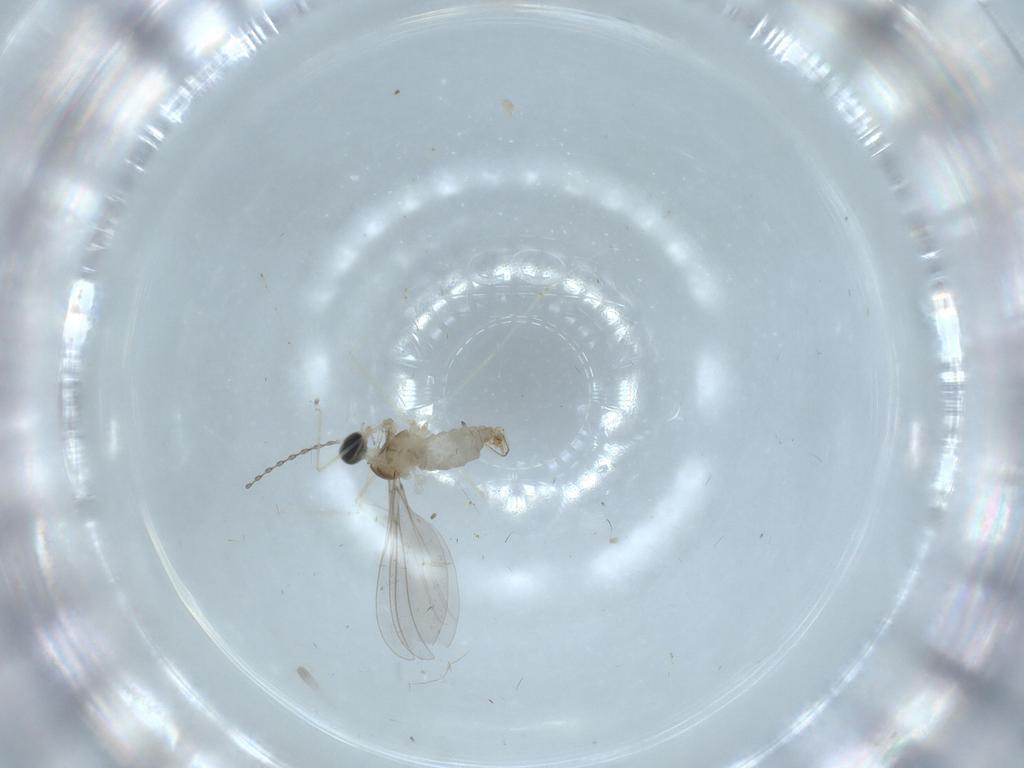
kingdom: Animalia
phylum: Arthropoda
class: Insecta
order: Diptera
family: Cecidomyiidae
